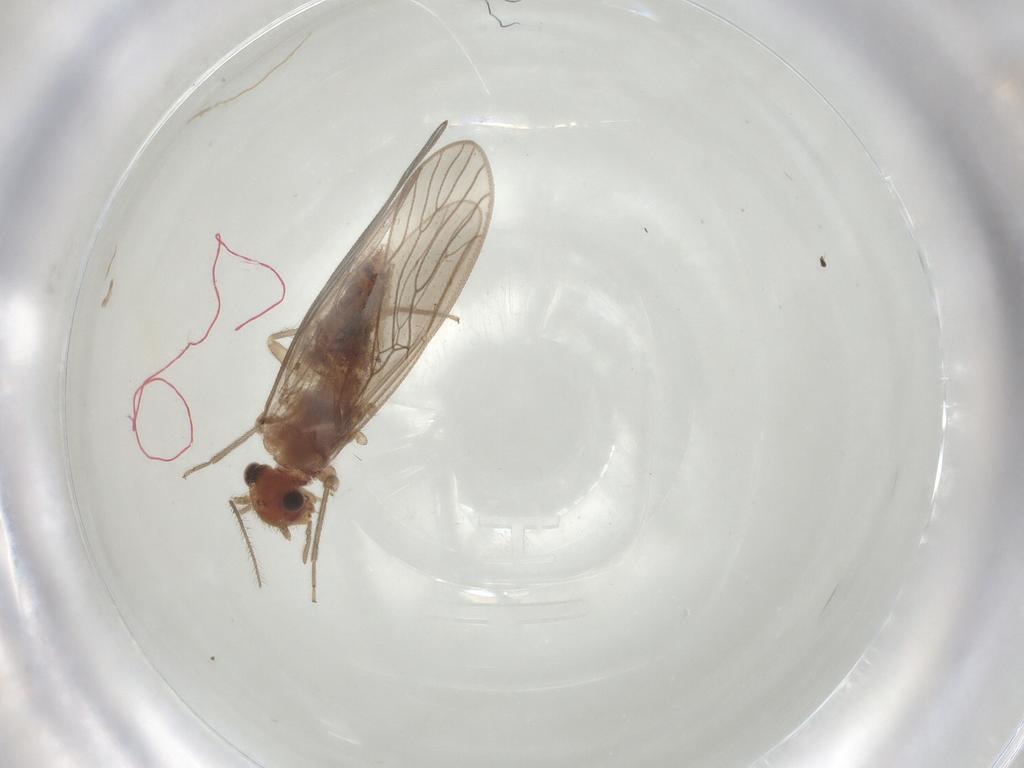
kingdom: Animalia
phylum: Arthropoda
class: Insecta
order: Psocodea
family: Epipsocidae
